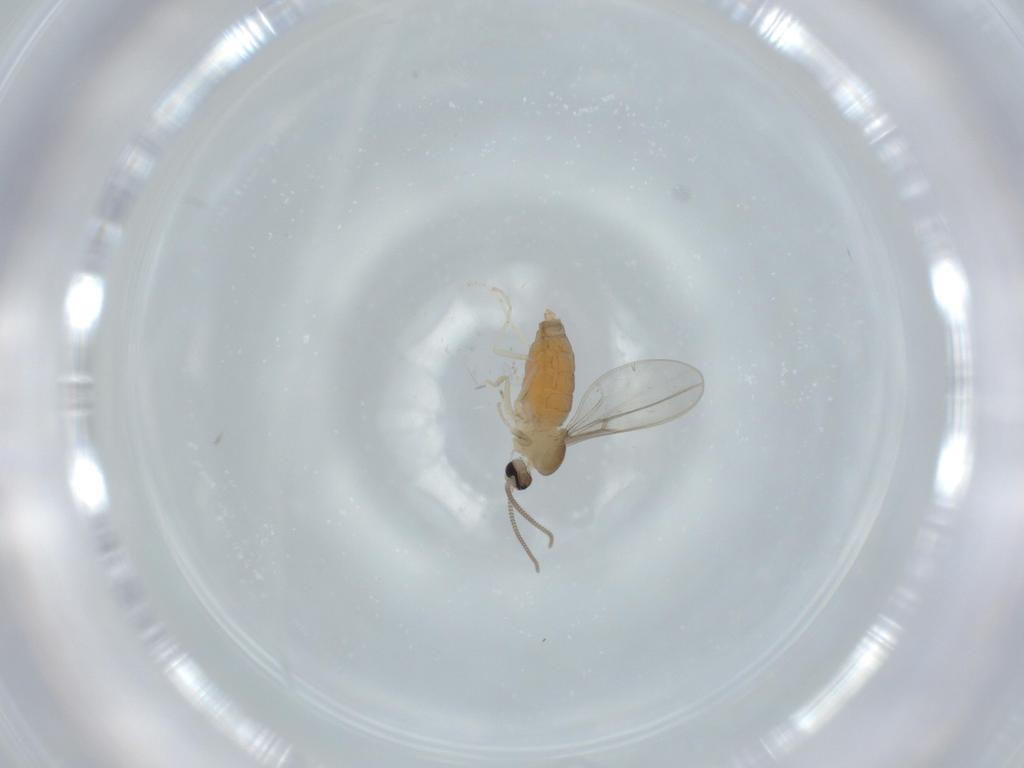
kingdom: Animalia
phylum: Arthropoda
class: Insecta
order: Diptera
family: Cecidomyiidae
